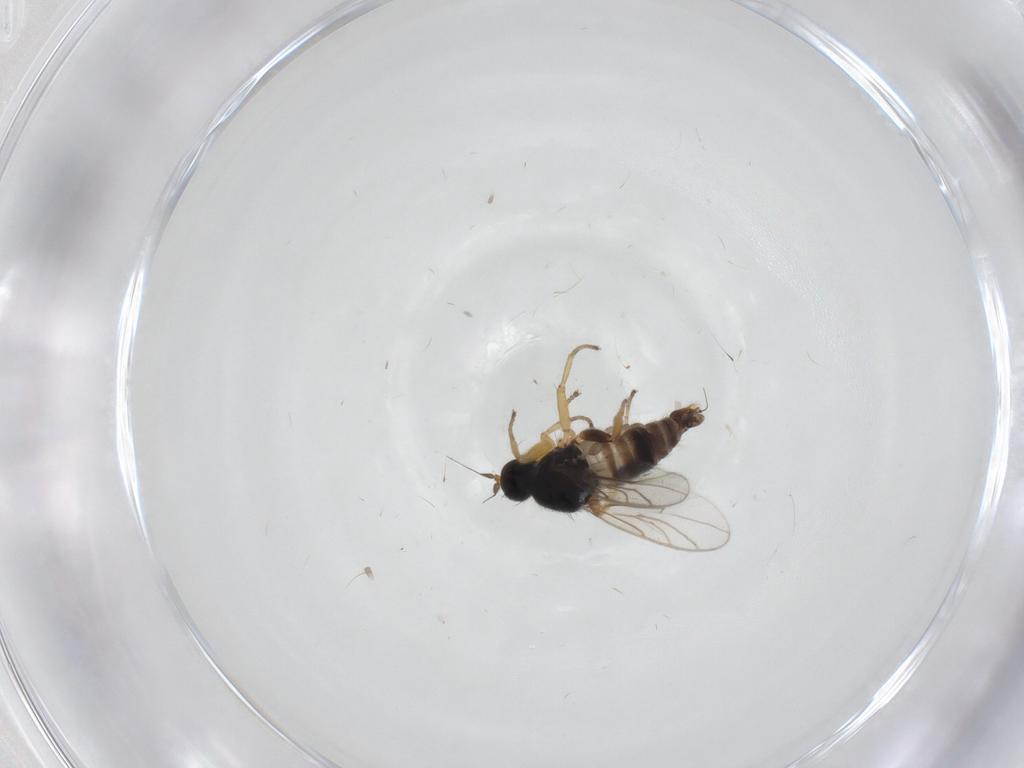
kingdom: Animalia
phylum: Arthropoda
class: Insecta
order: Diptera
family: Hybotidae
